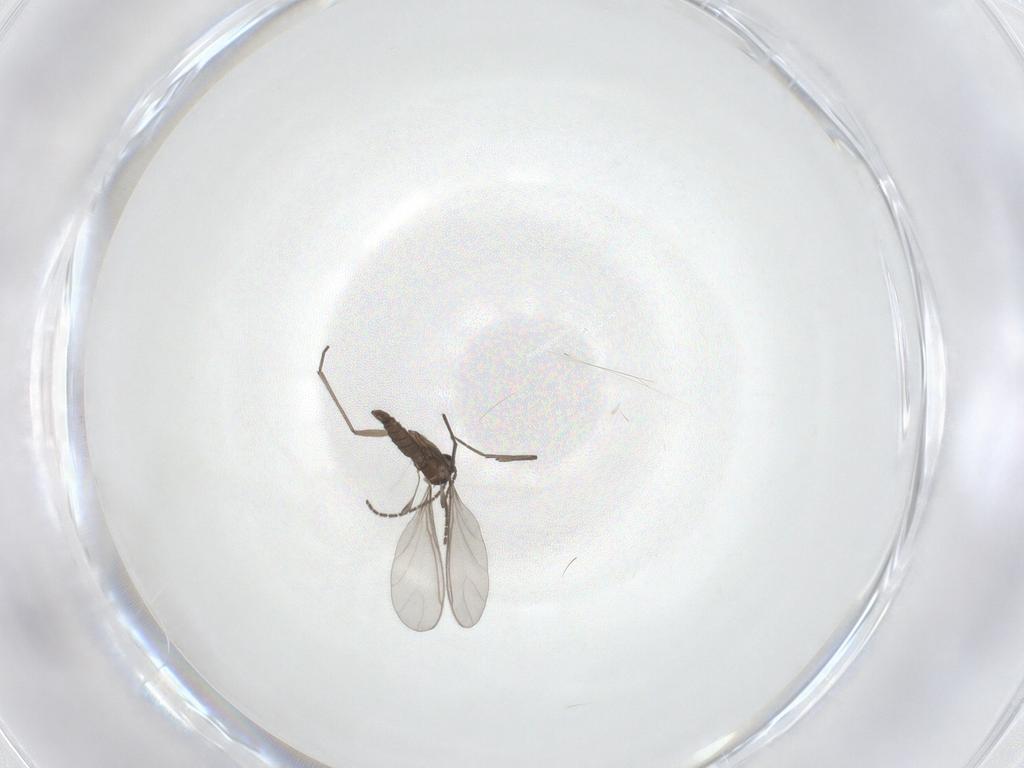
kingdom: Animalia
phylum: Arthropoda
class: Insecta
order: Diptera
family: Sciaridae
